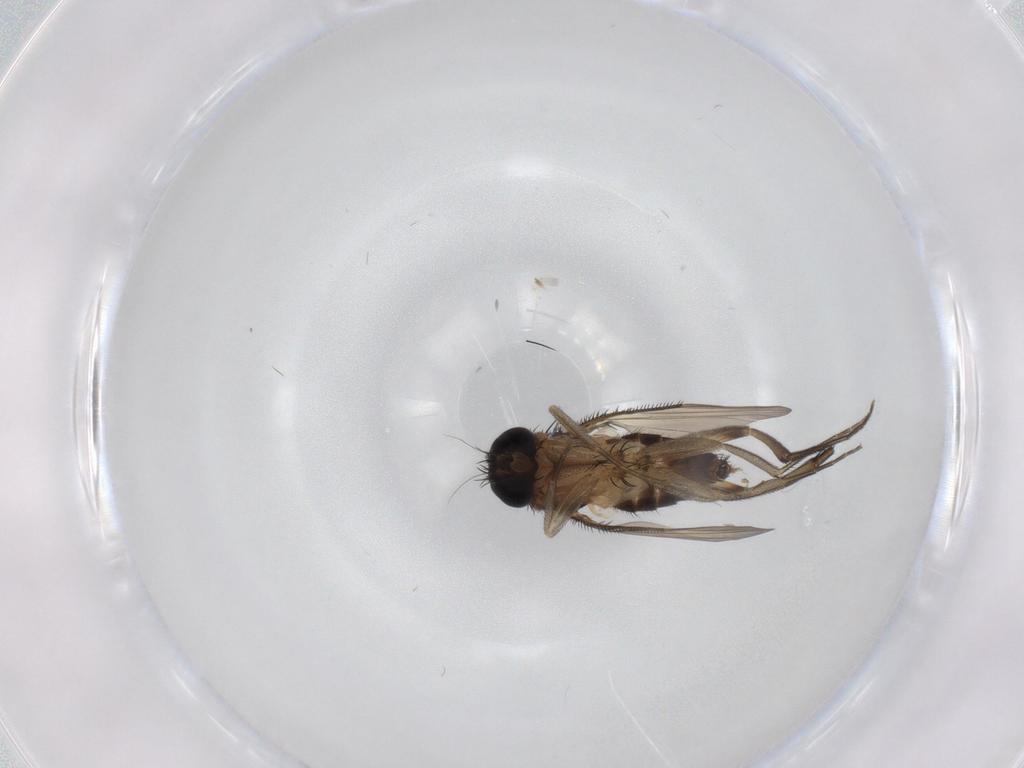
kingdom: Animalia
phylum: Arthropoda
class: Insecta
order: Diptera
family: Phoridae
